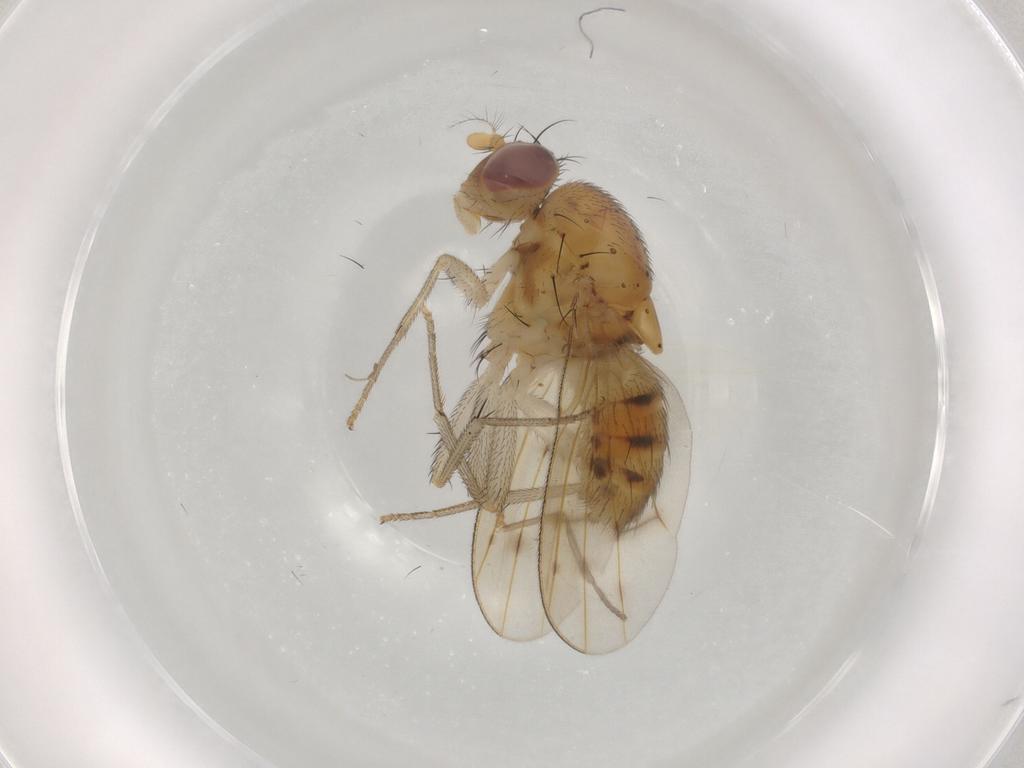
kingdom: Animalia
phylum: Arthropoda
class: Insecta
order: Diptera
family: Psychodidae
